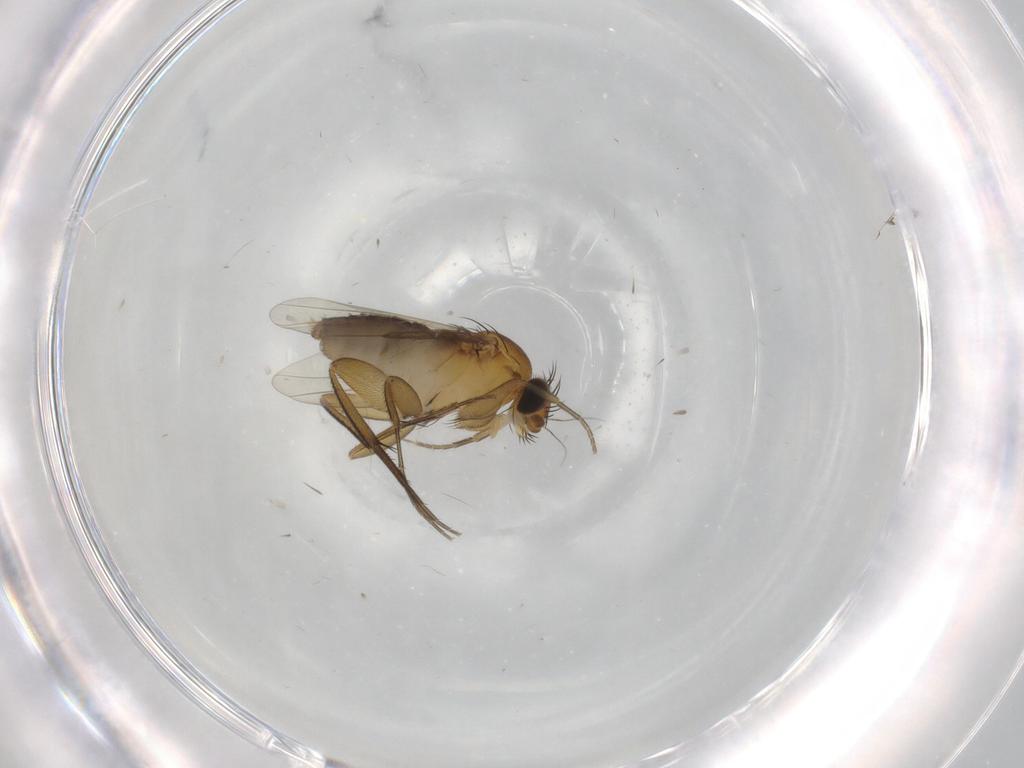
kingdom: Animalia
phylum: Arthropoda
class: Insecta
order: Diptera
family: Phoridae
